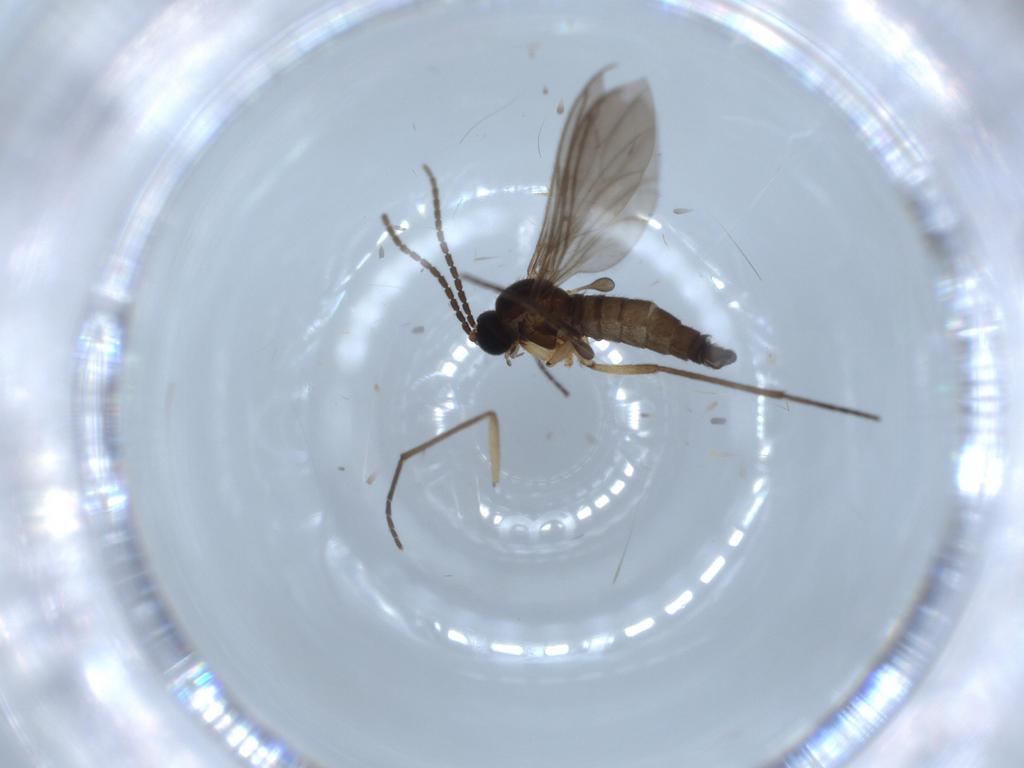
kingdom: Animalia
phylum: Arthropoda
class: Insecta
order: Diptera
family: Sciaridae
